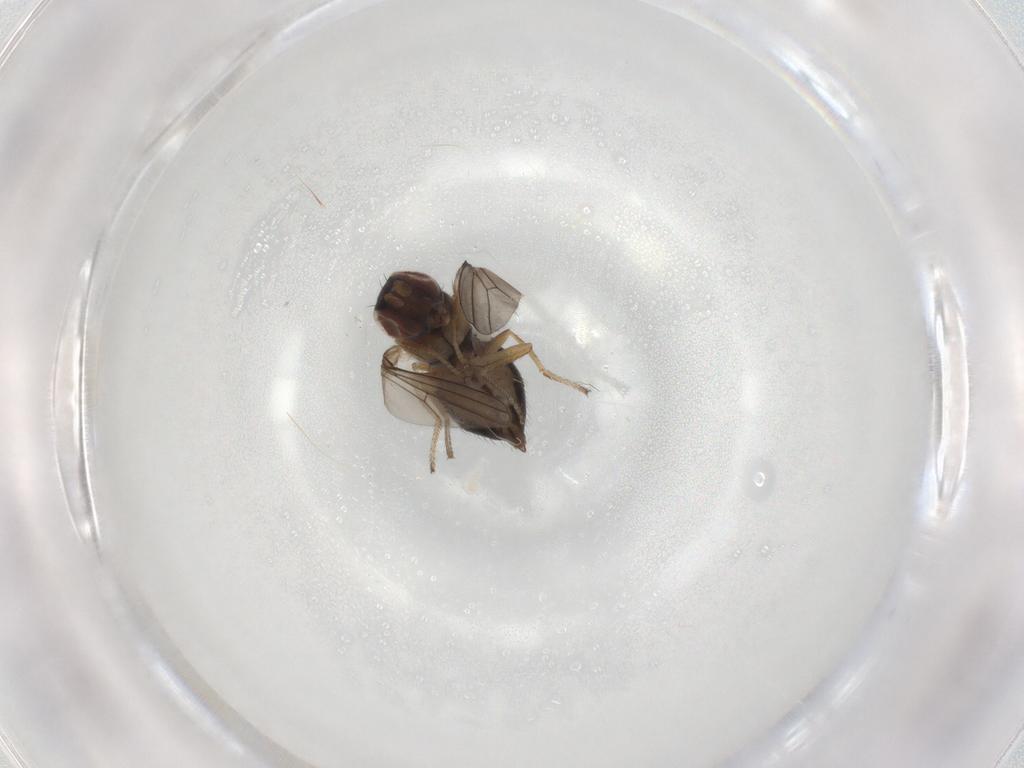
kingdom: Animalia
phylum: Arthropoda
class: Insecta
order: Diptera
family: Ephydridae
